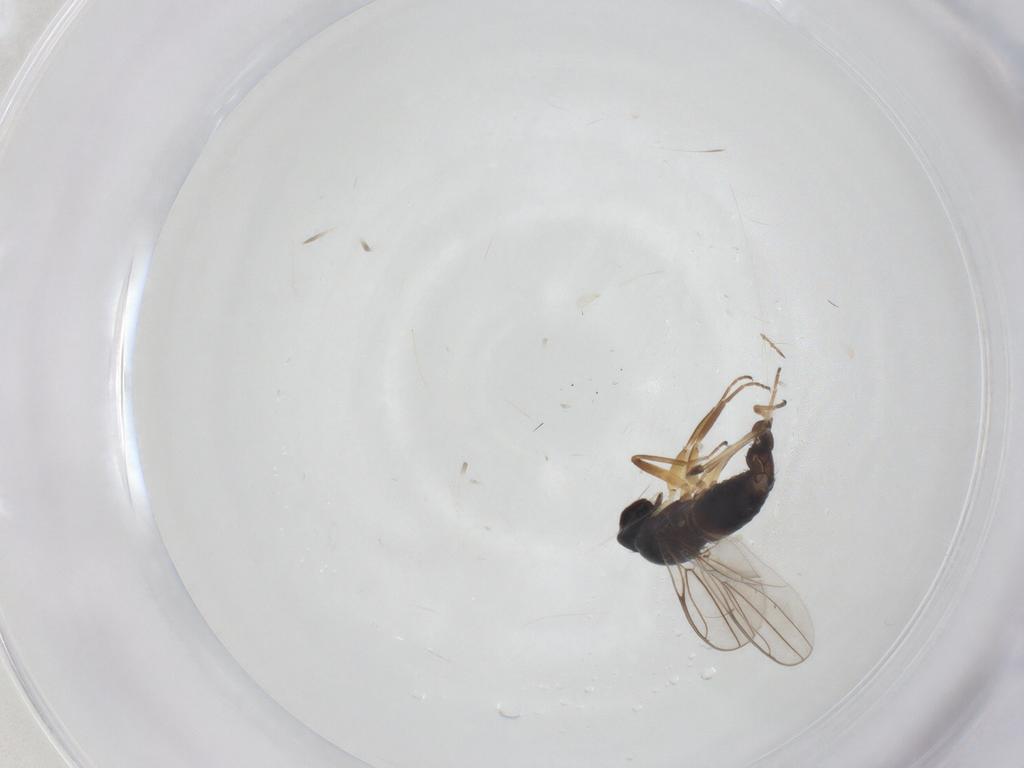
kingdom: Animalia
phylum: Arthropoda
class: Insecta
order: Diptera
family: Hybotidae
